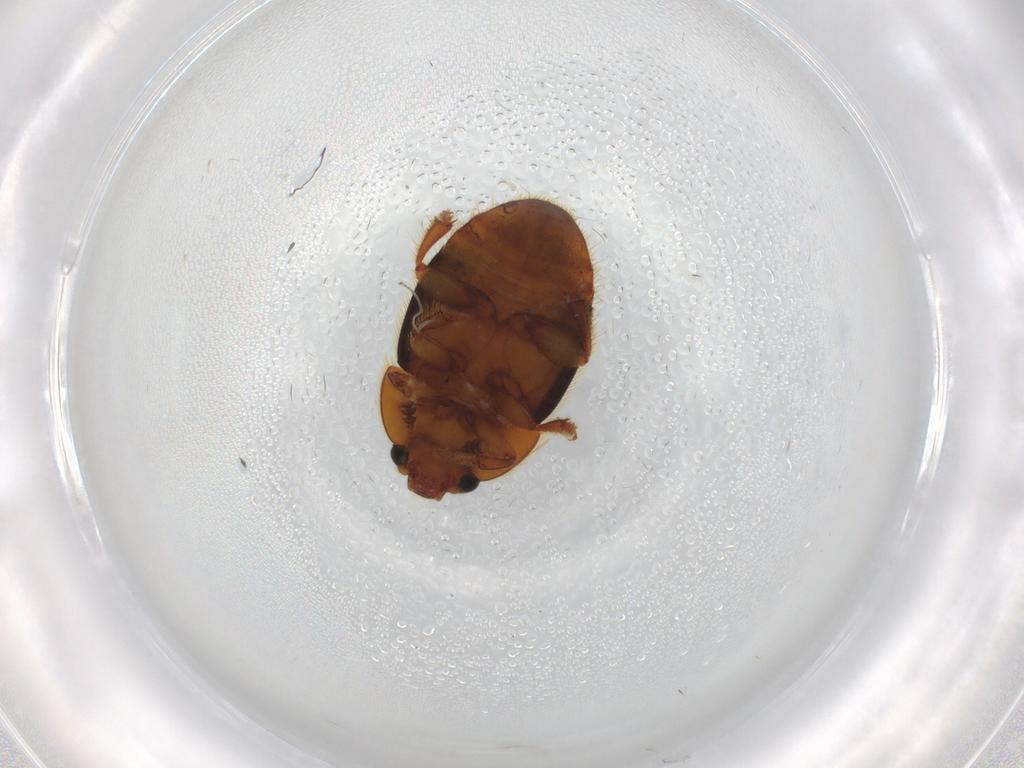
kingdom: Animalia
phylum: Arthropoda
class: Insecta
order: Coleoptera
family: Nitidulidae
